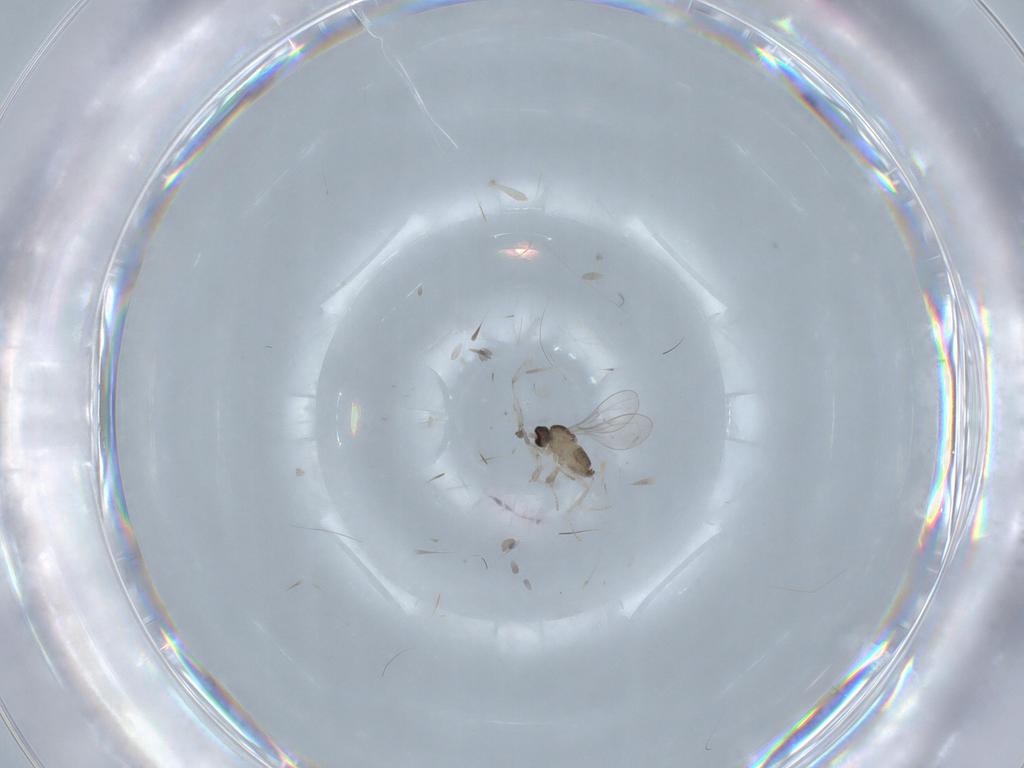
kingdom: Animalia
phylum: Arthropoda
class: Insecta
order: Diptera
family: Cecidomyiidae
